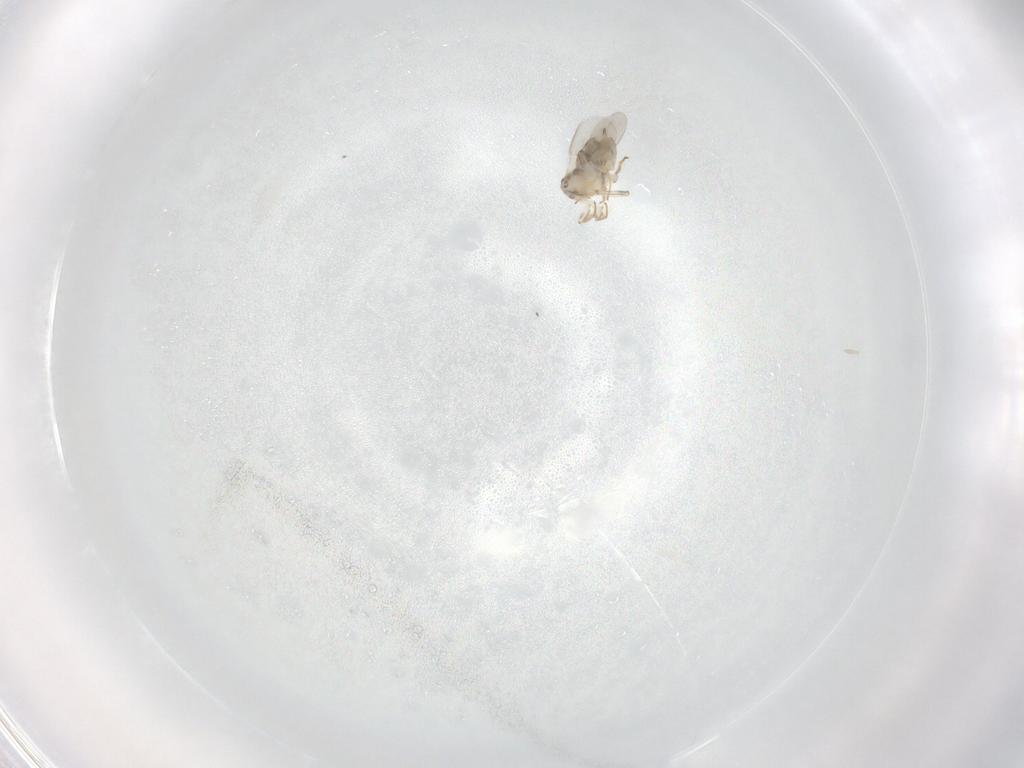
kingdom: Animalia
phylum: Arthropoda
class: Insecta
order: Hymenoptera
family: Encyrtidae
